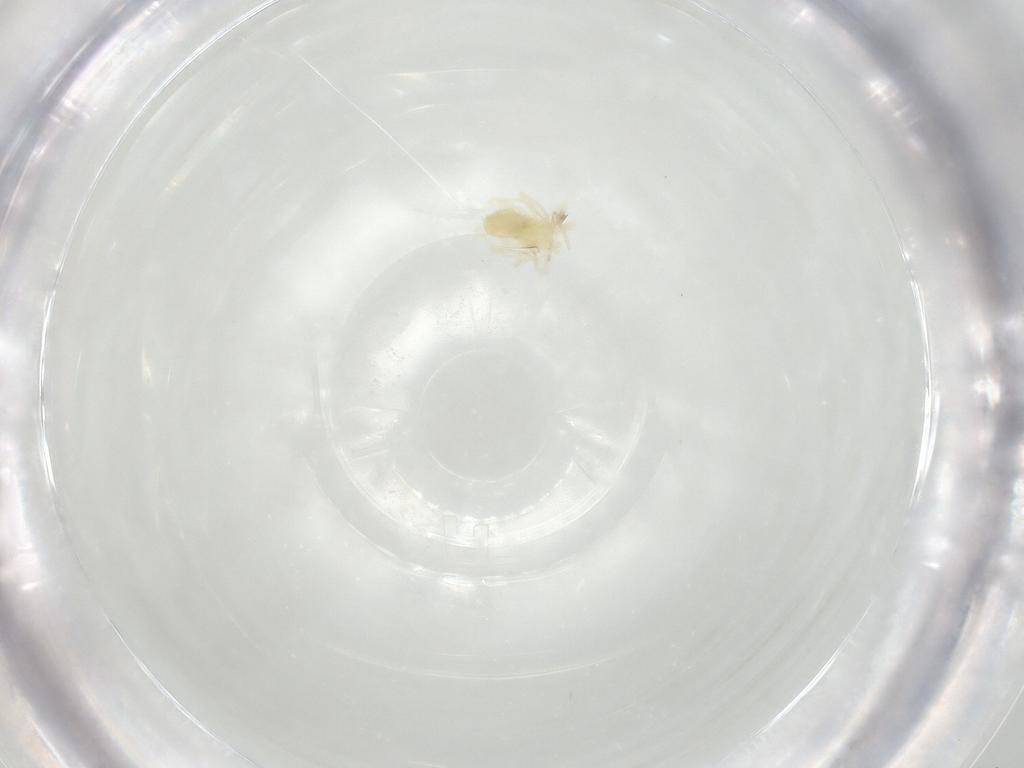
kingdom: Animalia
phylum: Arthropoda
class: Arachnida
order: Trombidiformes
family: Anystidae
